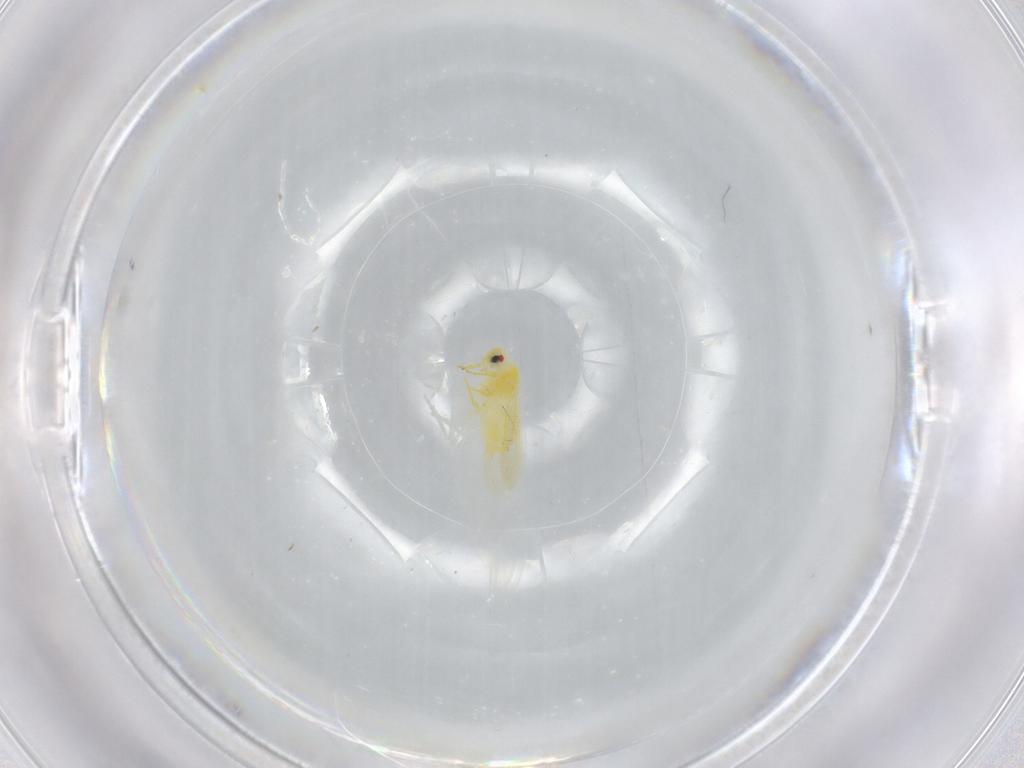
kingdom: Animalia
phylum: Arthropoda
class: Insecta
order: Hemiptera
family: Aleyrodidae
